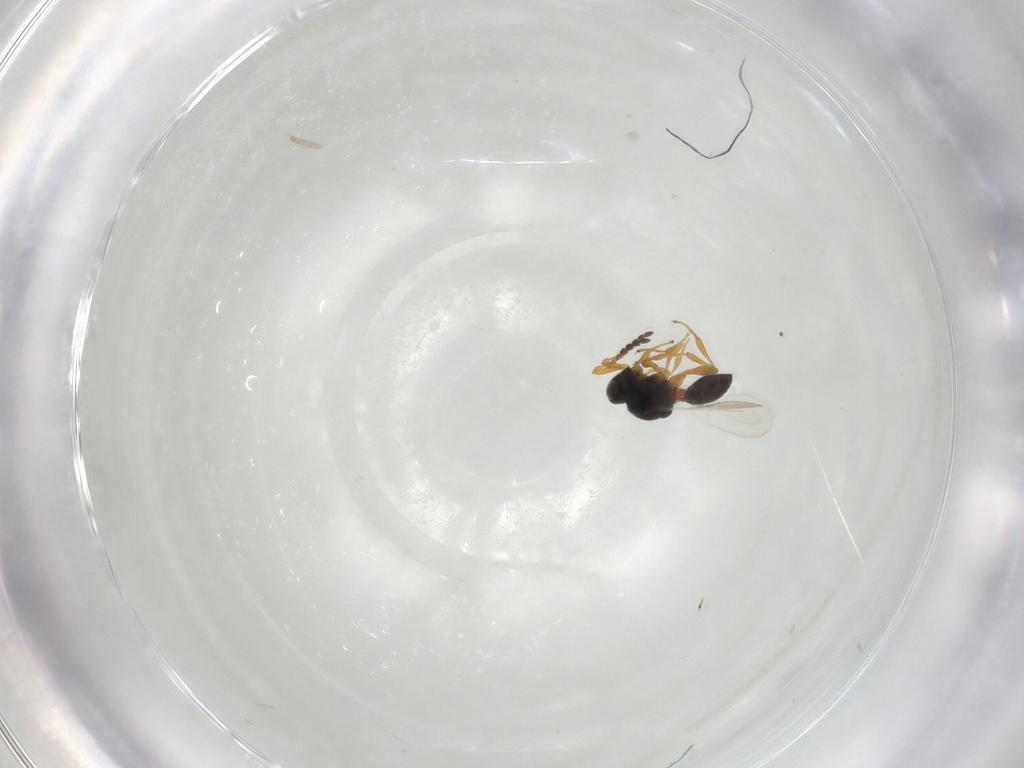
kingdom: Animalia
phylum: Arthropoda
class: Insecta
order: Hymenoptera
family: Platygastridae
